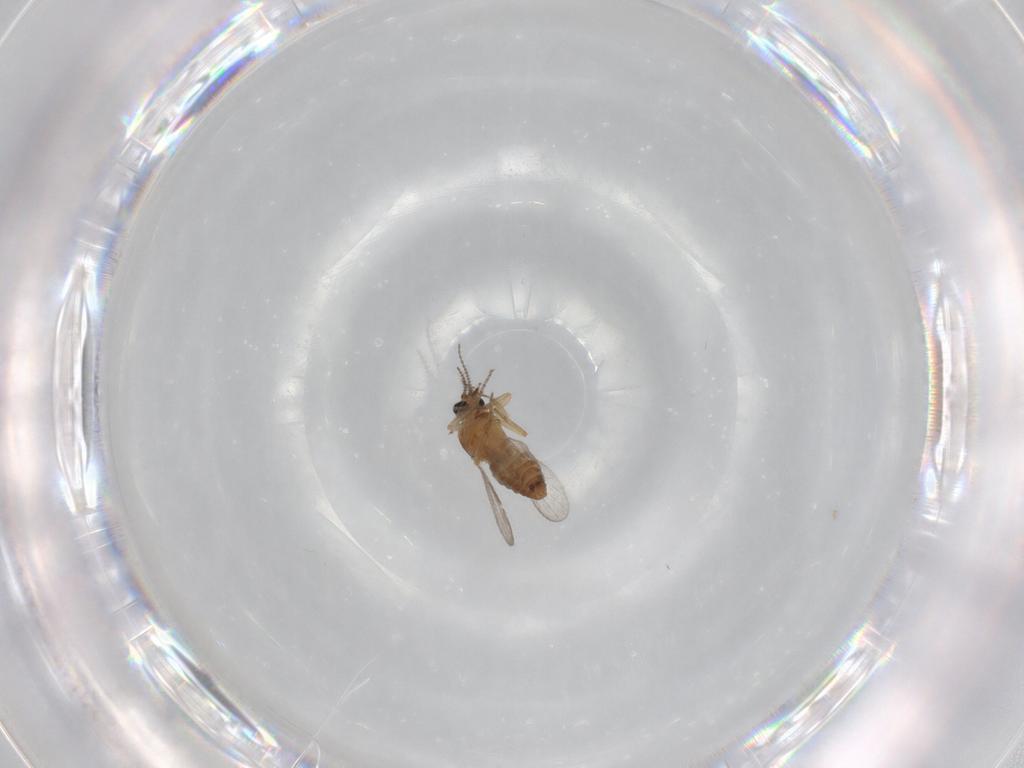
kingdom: Animalia
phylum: Arthropoda
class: Insecta
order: Diptera
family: Ceratopogonidae
